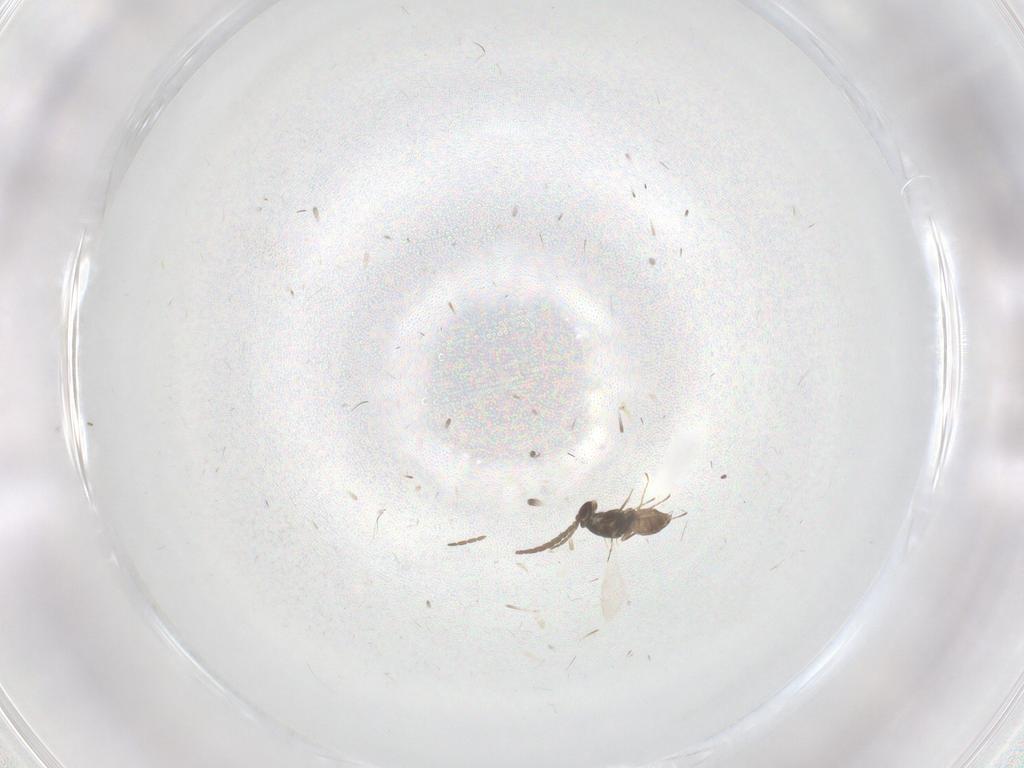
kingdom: Animalia
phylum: Arthropoda
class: Insecta
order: Hymenoptera
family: Mymaridae
